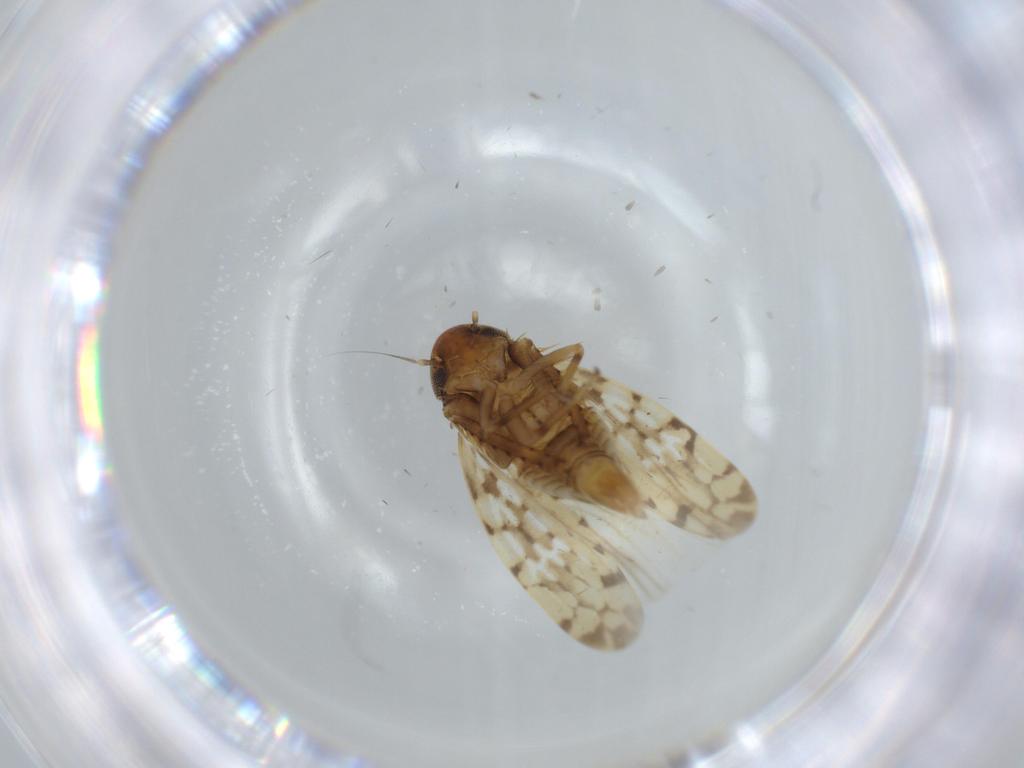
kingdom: Animalia
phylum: Arthropoda
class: Insecta
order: Hemiptera
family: Cicadellidae
